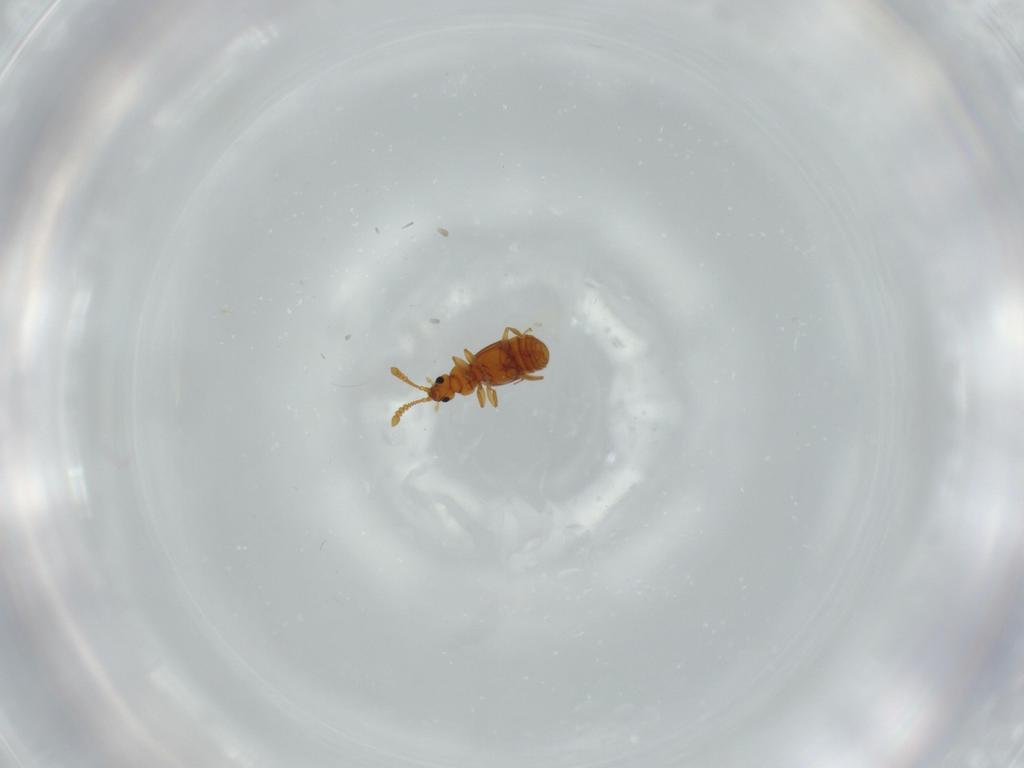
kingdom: Animalia
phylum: Arthropoda
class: Insecta
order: Coleoptera
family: Staphylinidae
